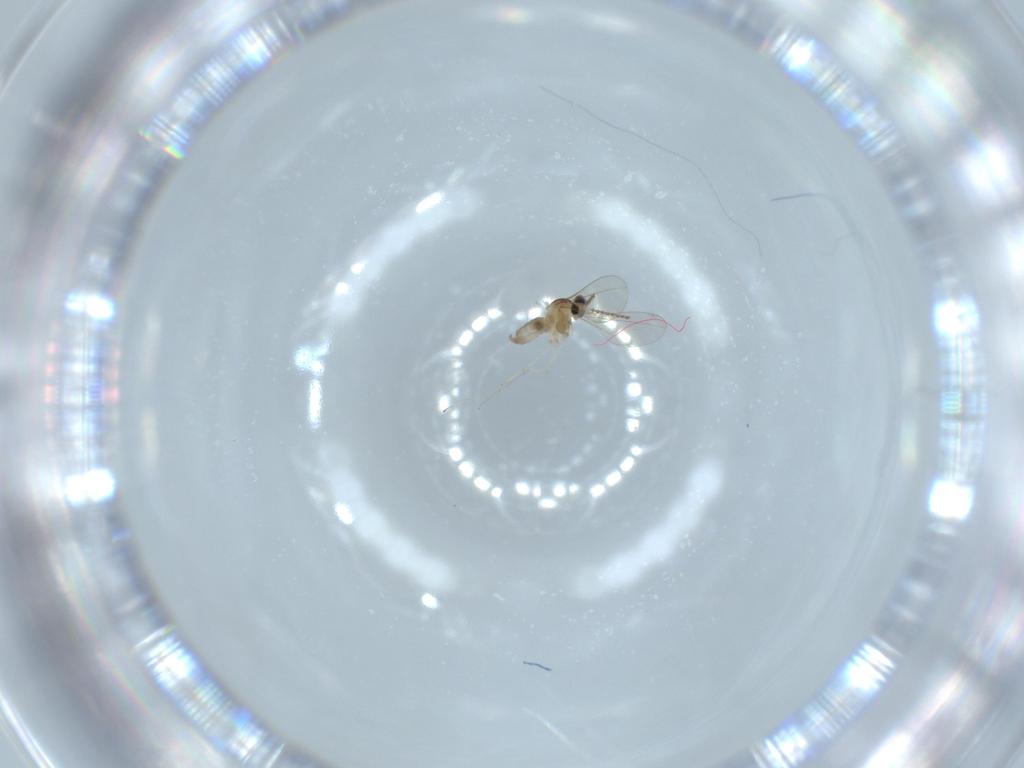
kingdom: Animalia
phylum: Arthropoda
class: Insecta
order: Diptera
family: Cecidomyiidae
